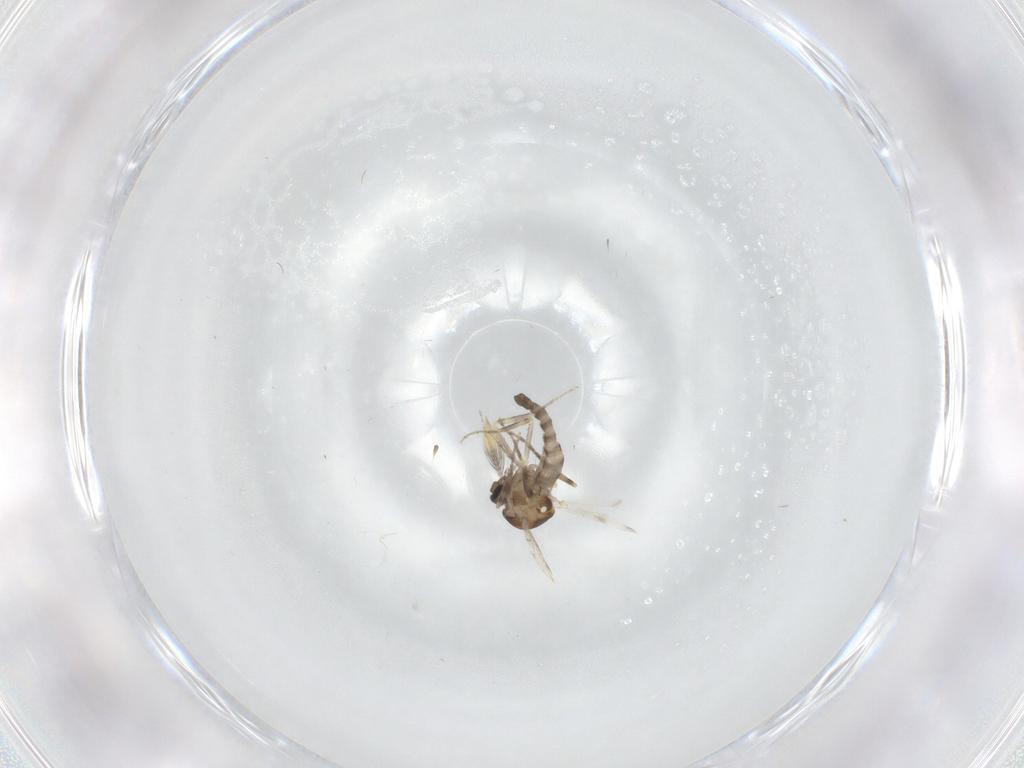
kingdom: Animalia
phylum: Arthropoda
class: Insecta
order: Diptera
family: Ceratopogonidae
